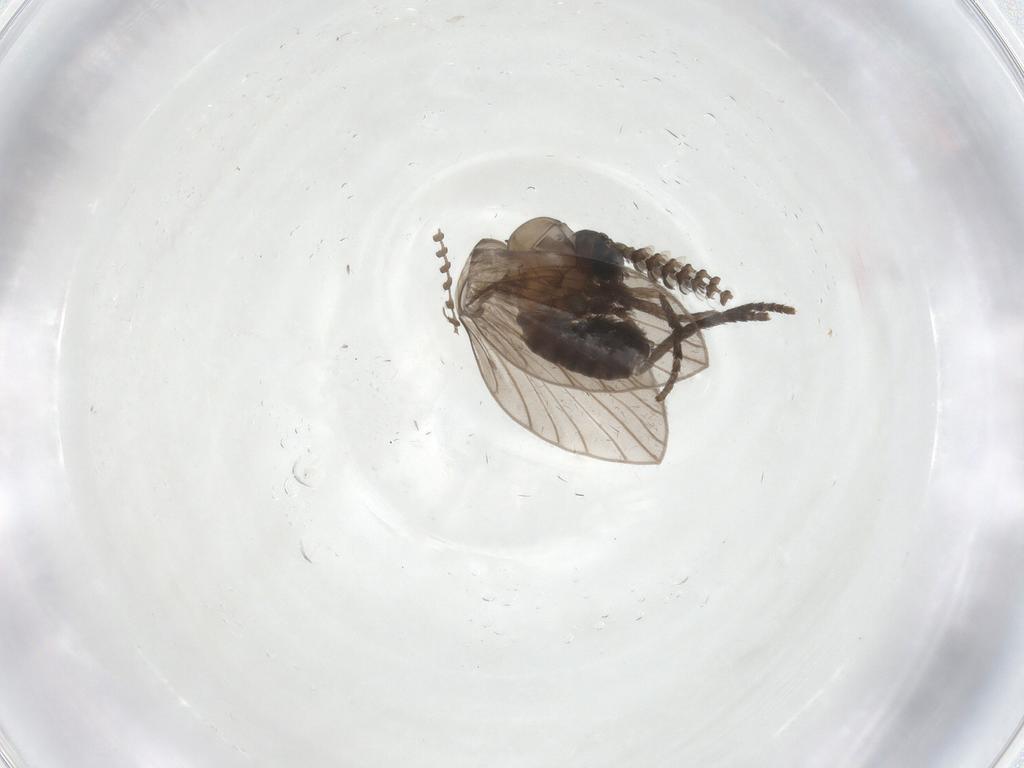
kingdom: Animalia
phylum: Arthropoda
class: Insecta
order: Diptera
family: Psychodidae
